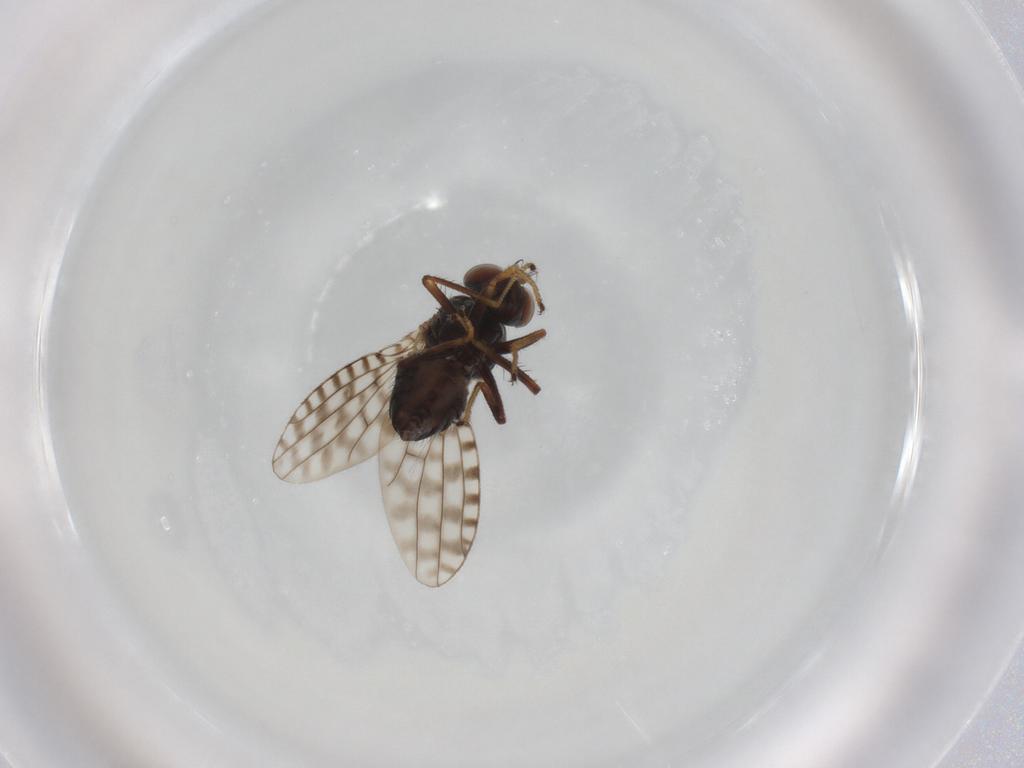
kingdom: Animalia
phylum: Arthropoda
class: Insecta
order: Diptera
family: Ephydridae
